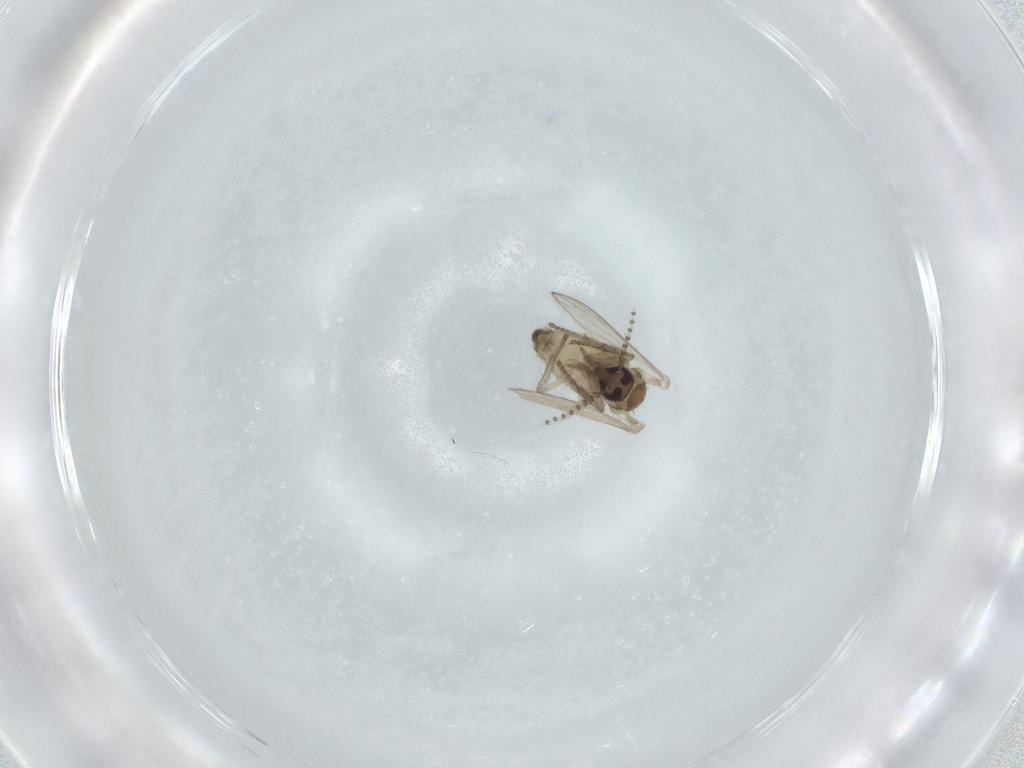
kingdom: Animalia
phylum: Arthropoda
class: Insecta
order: Diptera
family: Psychodidae
